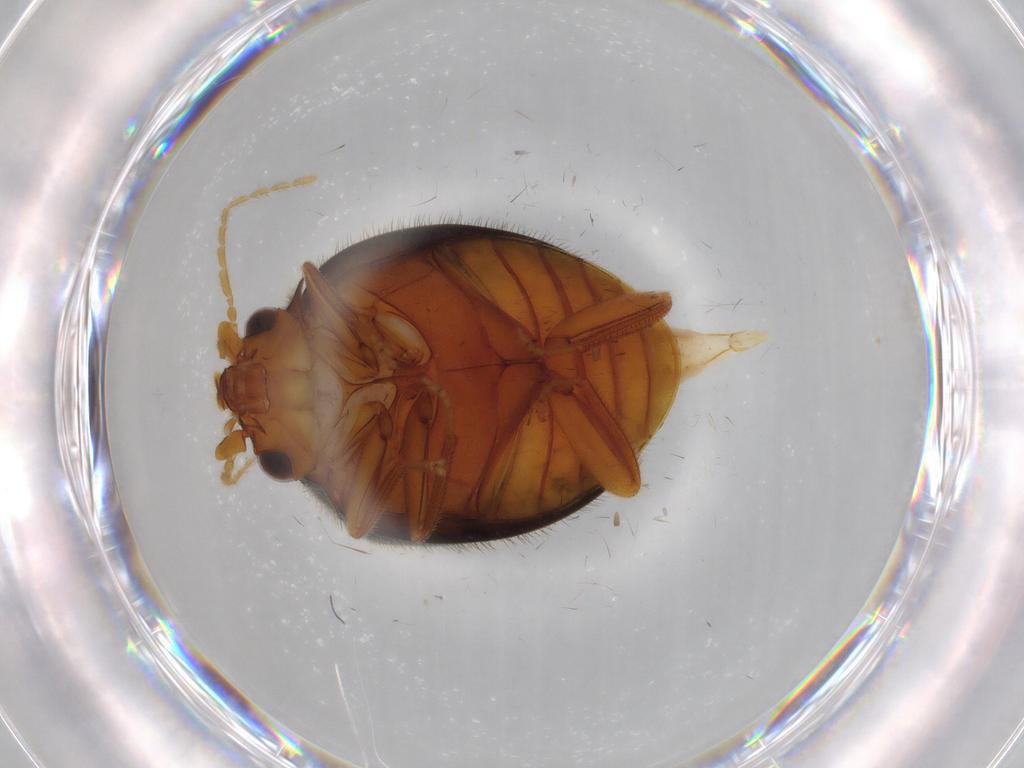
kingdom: Animalia
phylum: Arthropoda
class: Insecta
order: Coleoptera
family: Scirtidae
